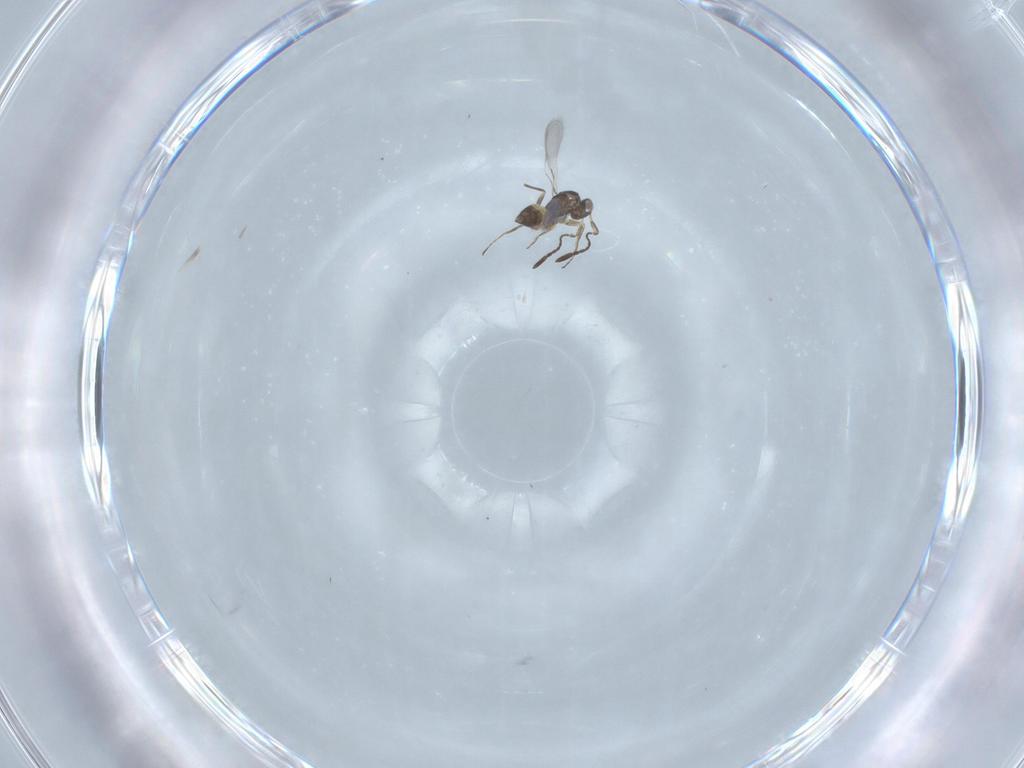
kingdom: Animalia
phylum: Arthropoda
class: Insecta
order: Hymenoptera
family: Mymaridae
